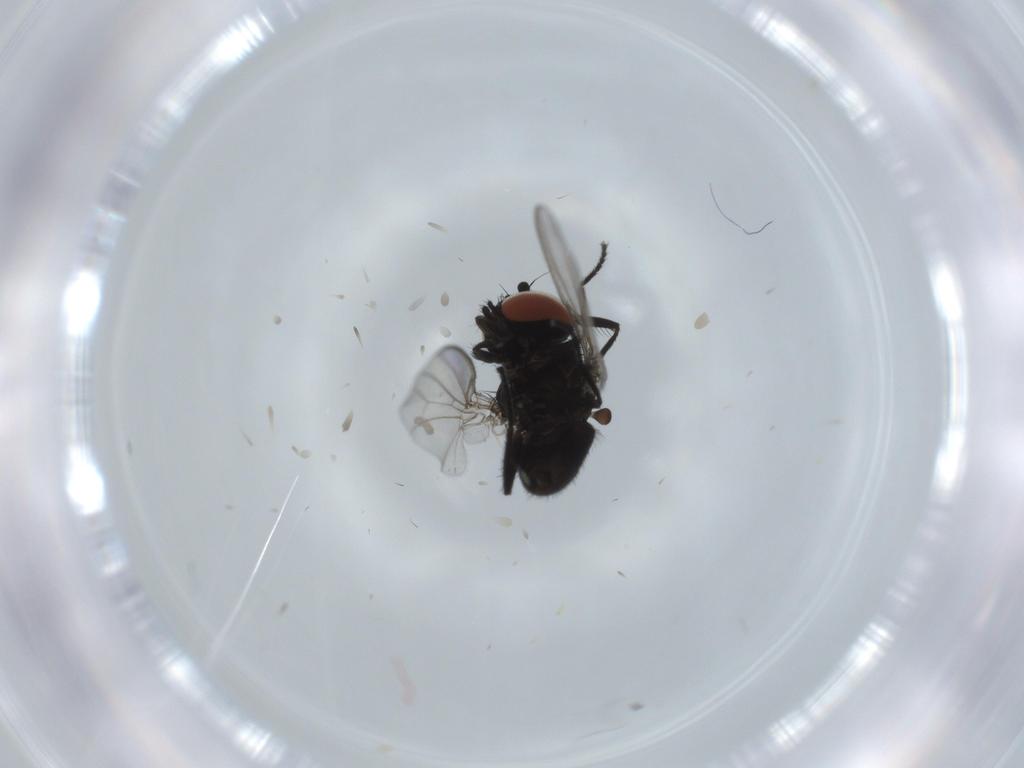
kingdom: Animalia
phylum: Arthropoda
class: Insecta
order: Diptera
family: Milichiidae
